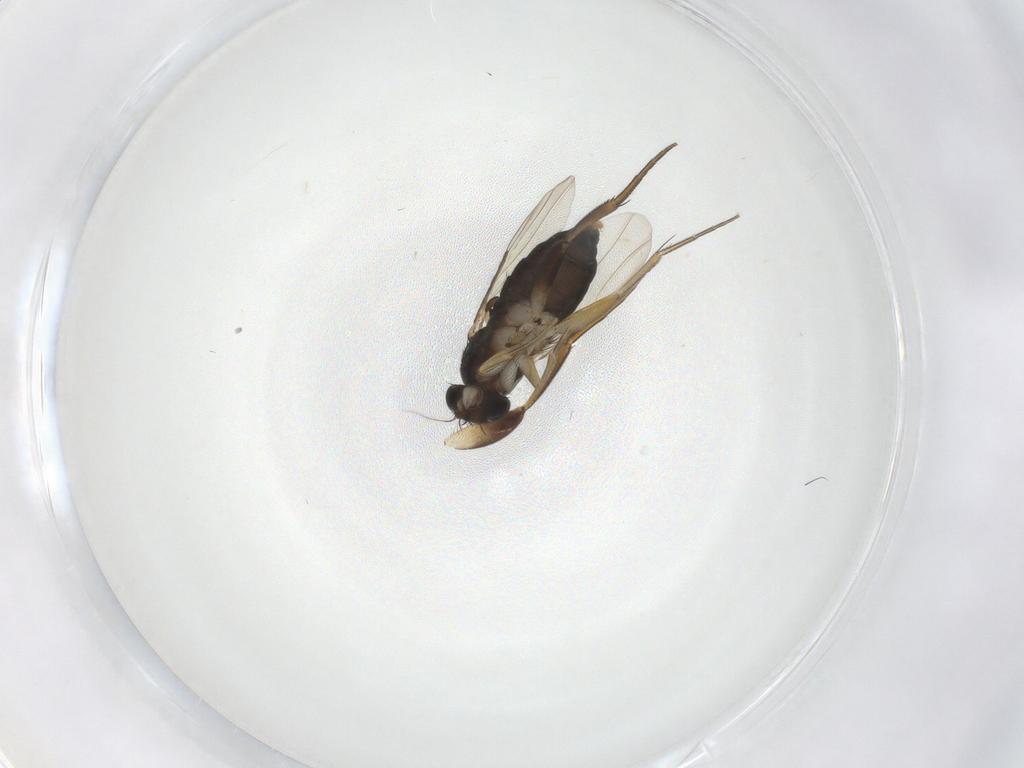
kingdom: Animalia
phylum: Arthropoda
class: Insecta
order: Diptera
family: Phoridae
